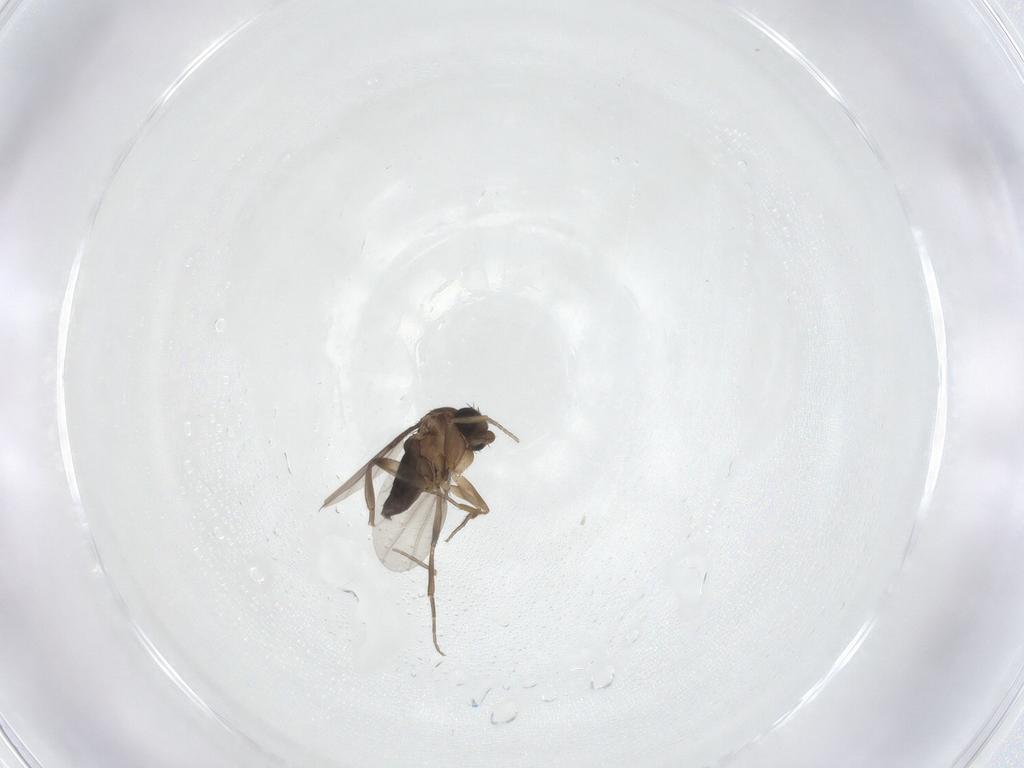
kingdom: Animalia
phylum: Arthropoda
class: Insecta
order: Diptera
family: Phoridae
